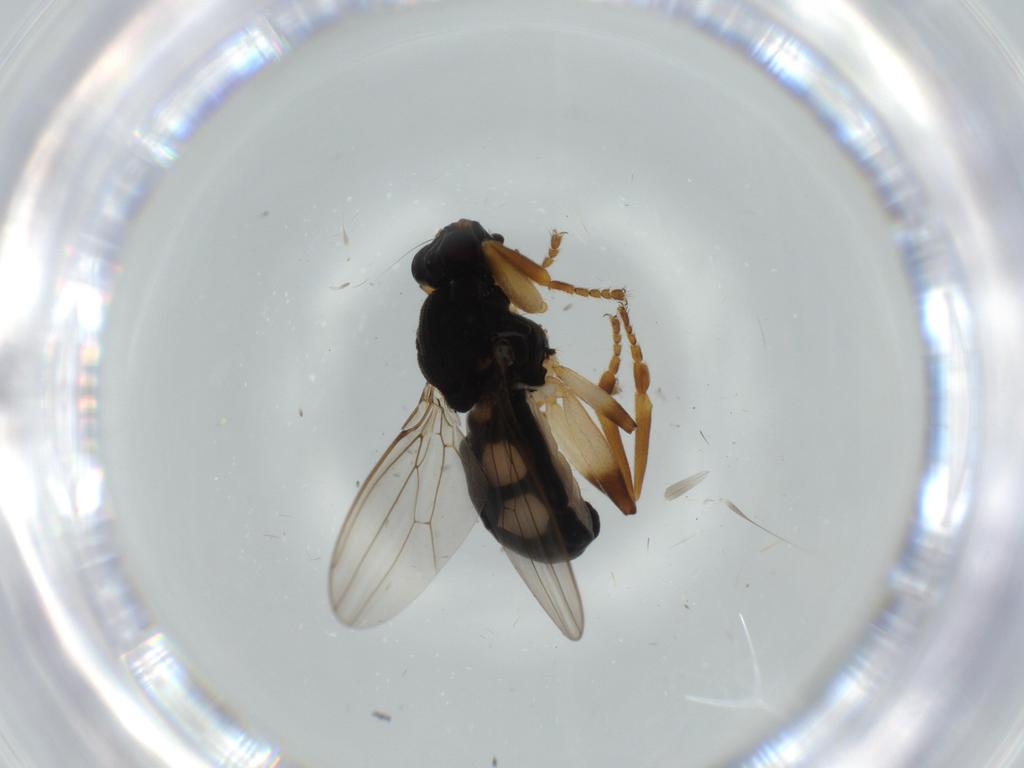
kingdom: Animalia
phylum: Arthropoda
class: Insecta
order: Diptera
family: Sphaeroceridae
